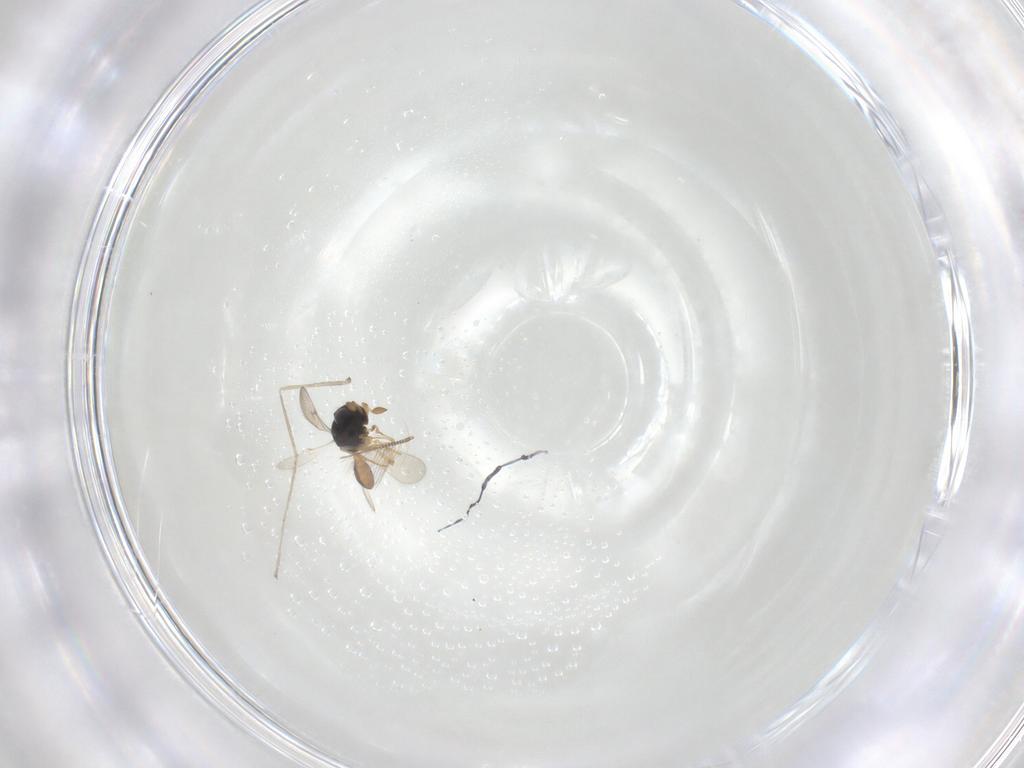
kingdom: Animalia
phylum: Arthropoda
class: Insecta
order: Hymenoptera
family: Scelionidae
